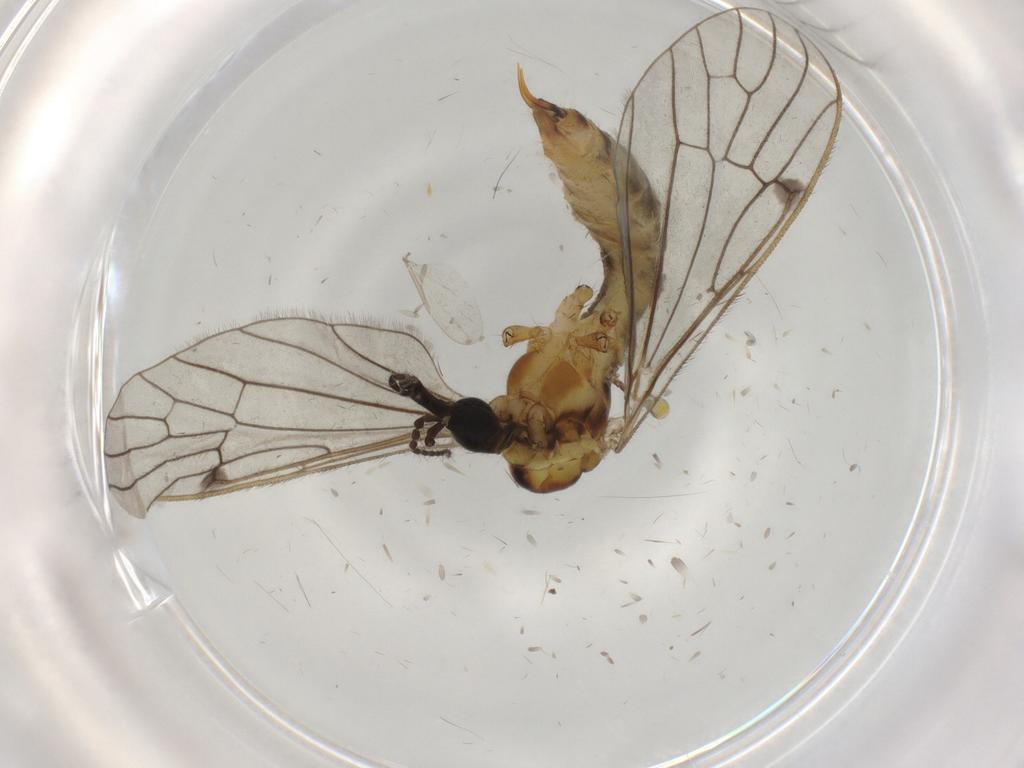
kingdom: Animalia
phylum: Arthropoda
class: Insecta
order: Diptera
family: Limoniidae
